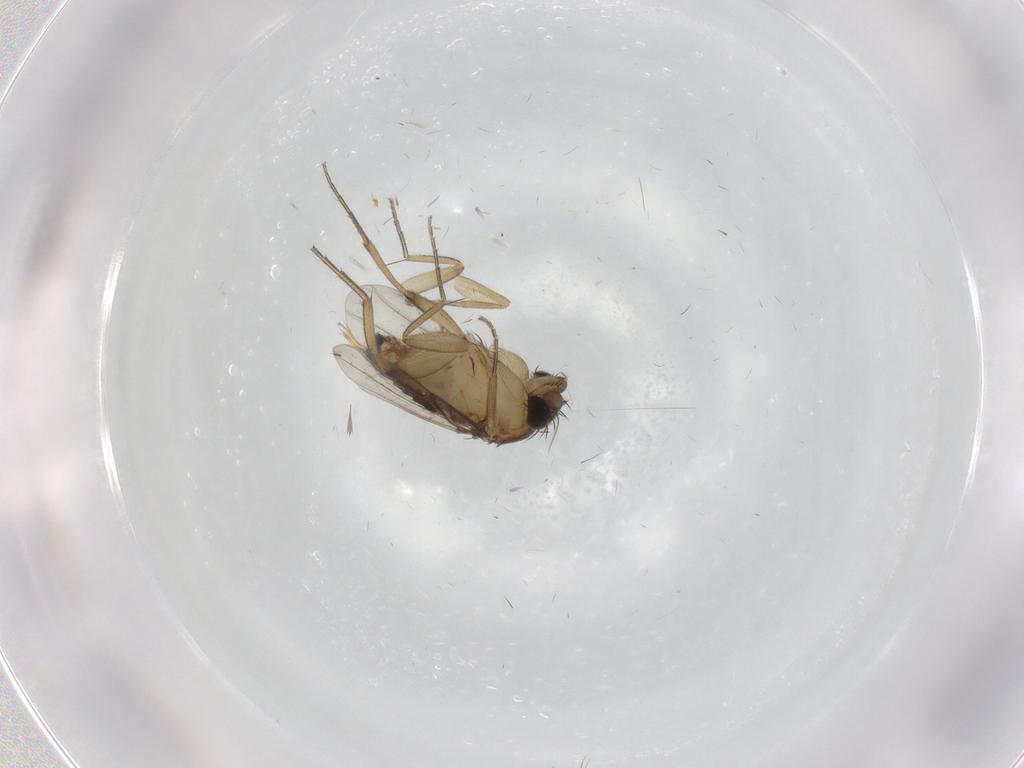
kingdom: Animalia
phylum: Arthropoda
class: Insecta
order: Diptera
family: Phoridae
